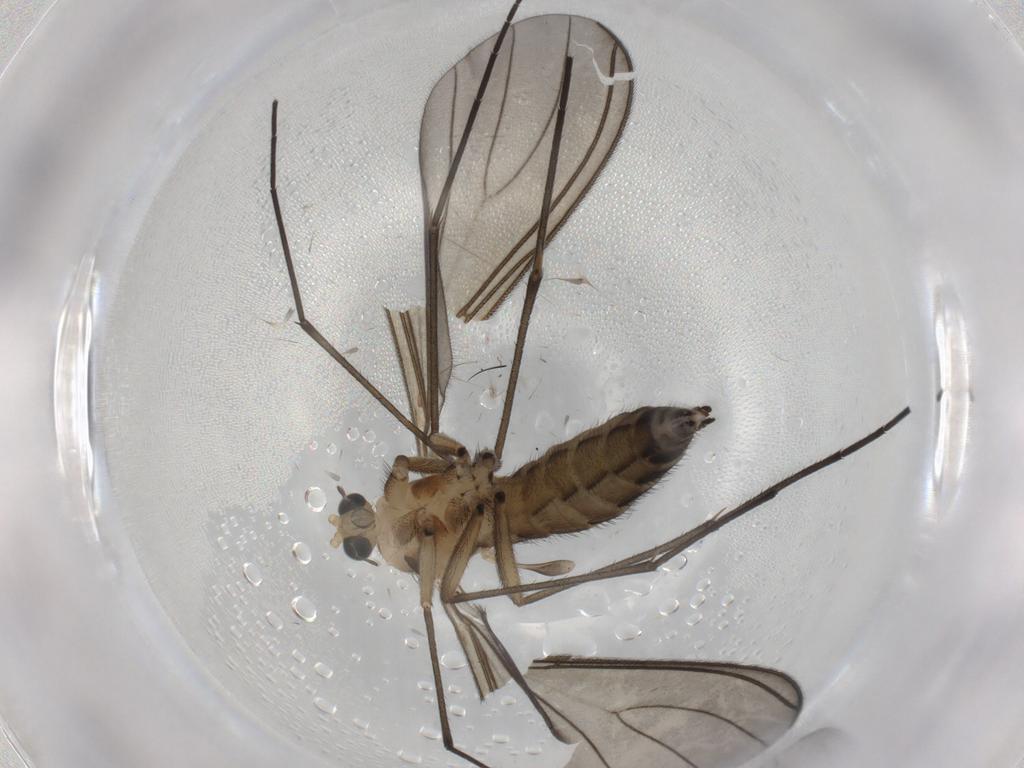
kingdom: Animalia
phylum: Arthropoda
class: Insecta
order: Diptera
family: Sciaridae
